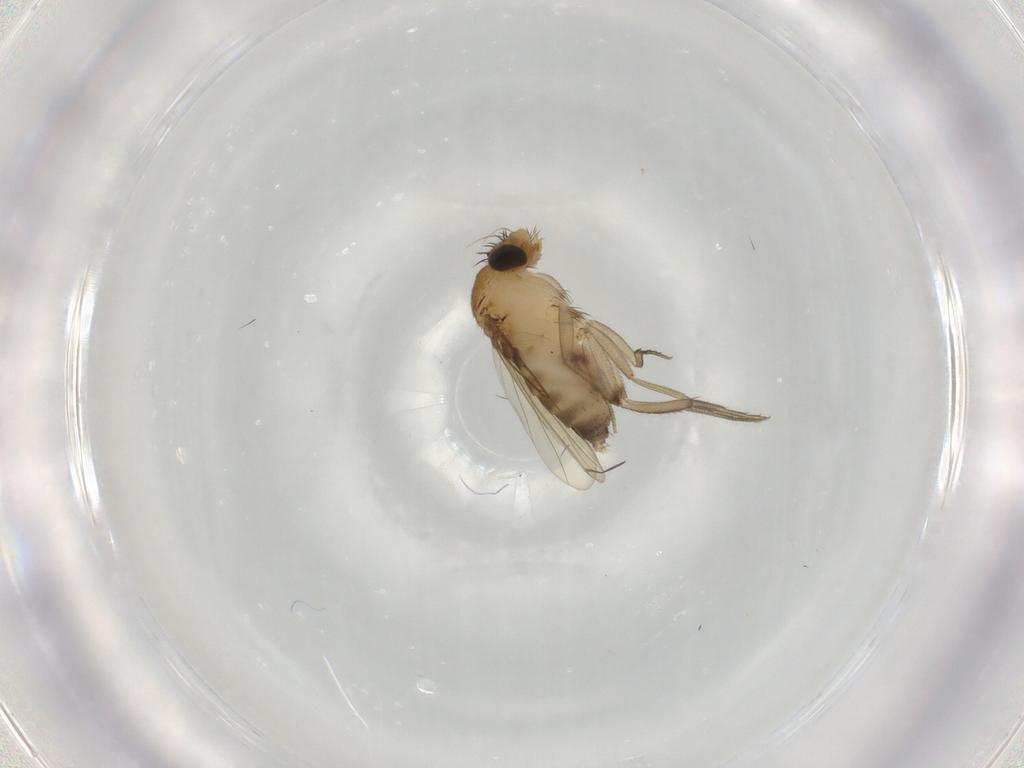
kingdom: Animalia
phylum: Arthropoda
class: Insecta
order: Diptera
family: Phoridae
